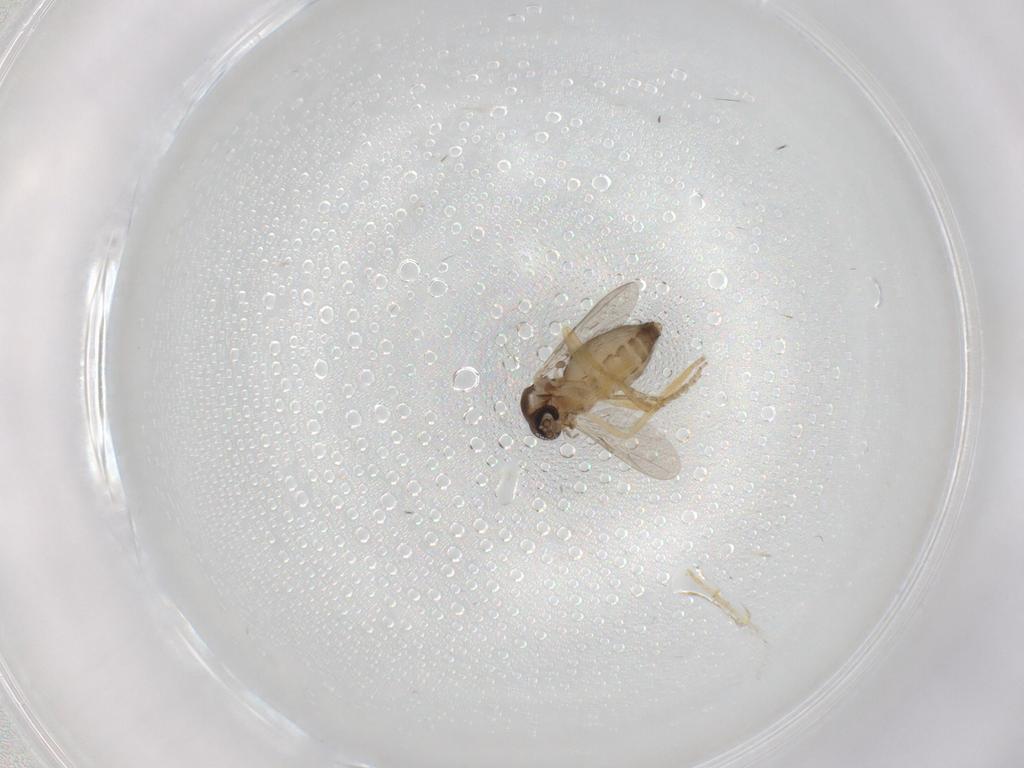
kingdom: Animalia
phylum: Arthropoda
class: Insecta
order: Diptera
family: Ceratopogonidae
